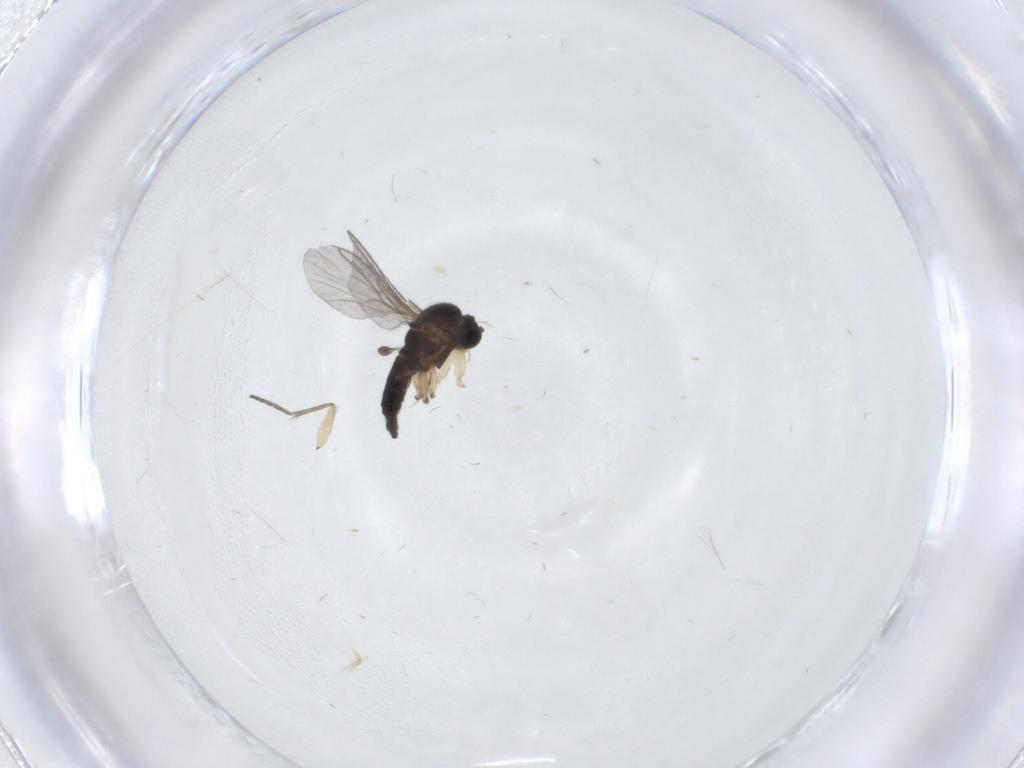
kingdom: Animalia
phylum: Arthropoda
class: Insecta
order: Diptera
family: Sciaridae
